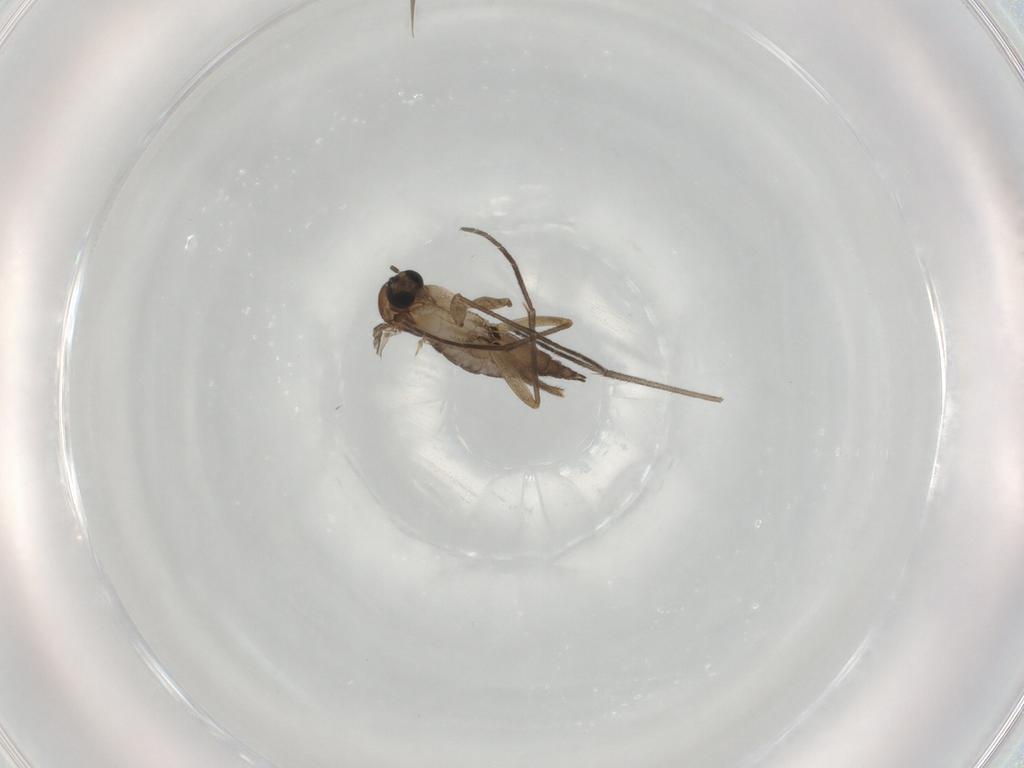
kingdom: Animalia
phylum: Arthropoda
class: Insecta
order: Diptera
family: Sciaridae
